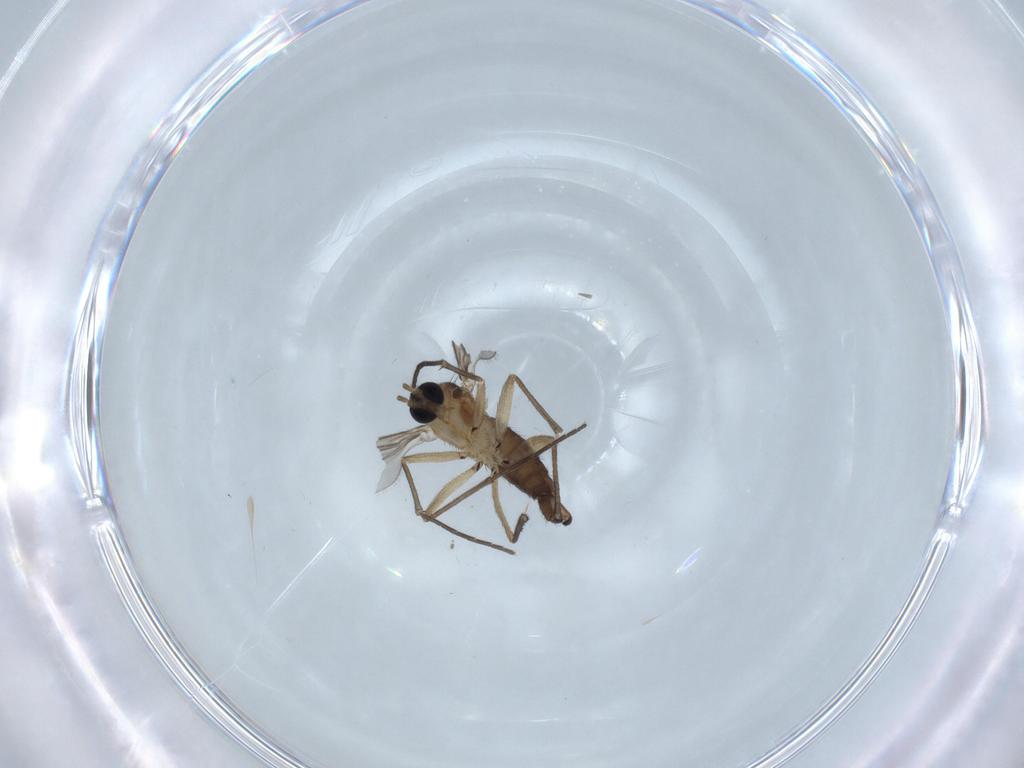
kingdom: Animalia
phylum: Arthropoda
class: Insecta
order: Diptera
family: Sciaridae
